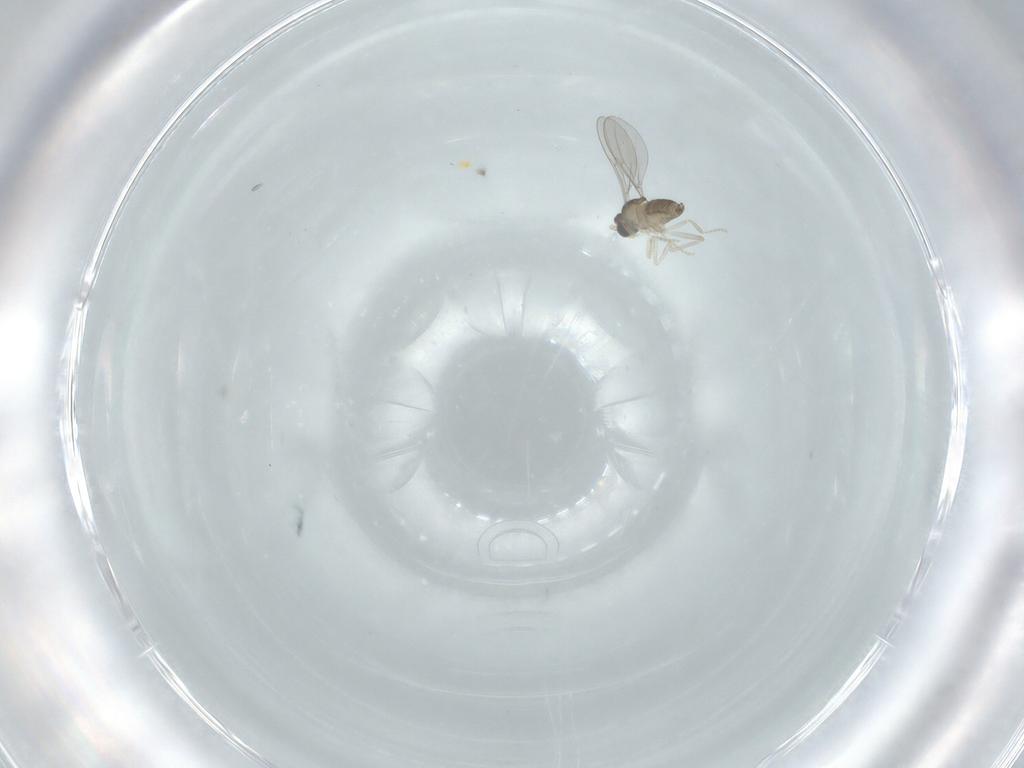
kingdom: Animalia
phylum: Arthropoda
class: Insecta
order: Diptera
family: Cecidomyiidae
